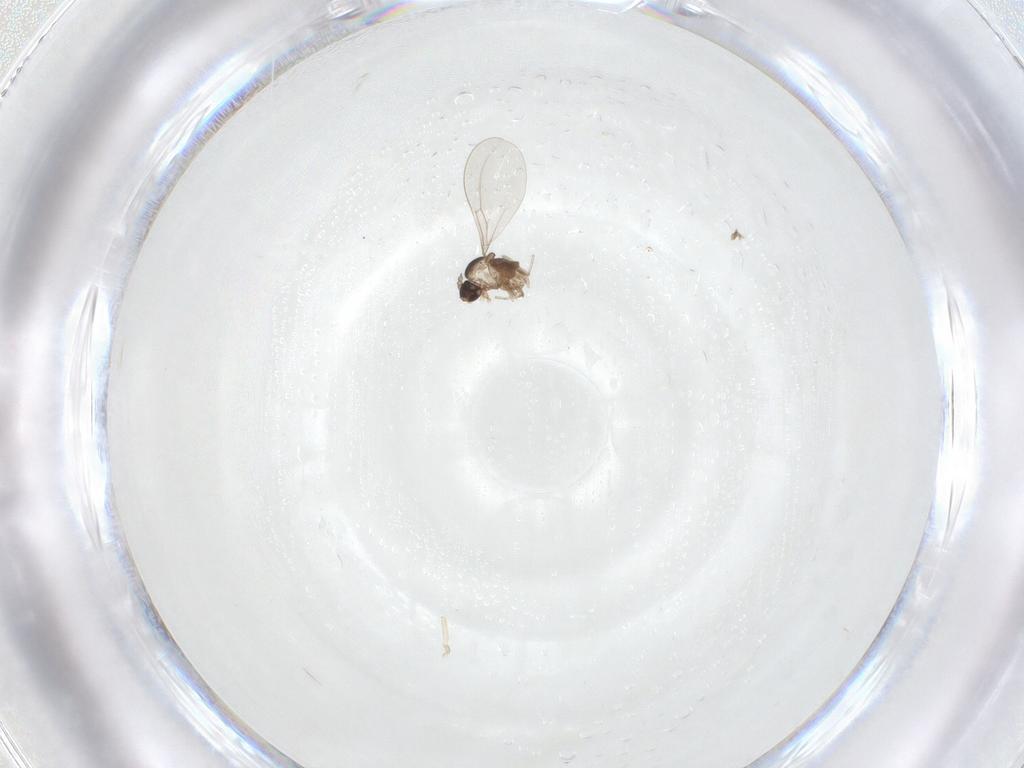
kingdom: Animalia
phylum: Arthropoda
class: Insecta
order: Diptera
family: Cecidomyiidae
